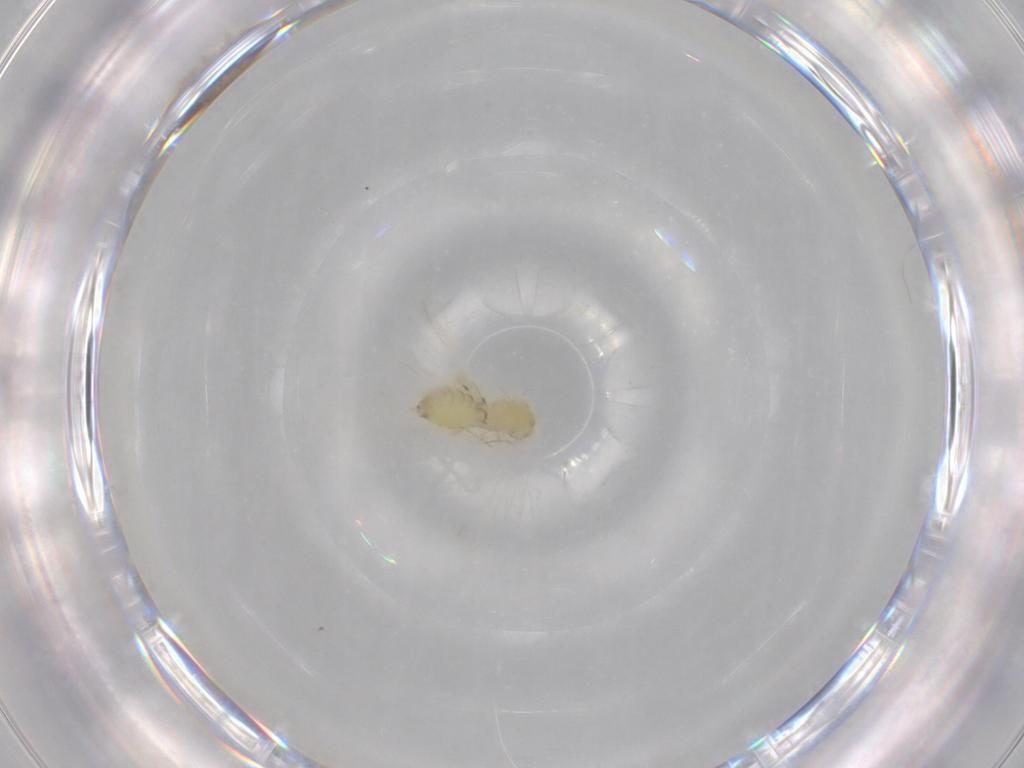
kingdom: Animalia
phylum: Arthropoda
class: Insecta
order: Hemiptera
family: Aleyrodidae
